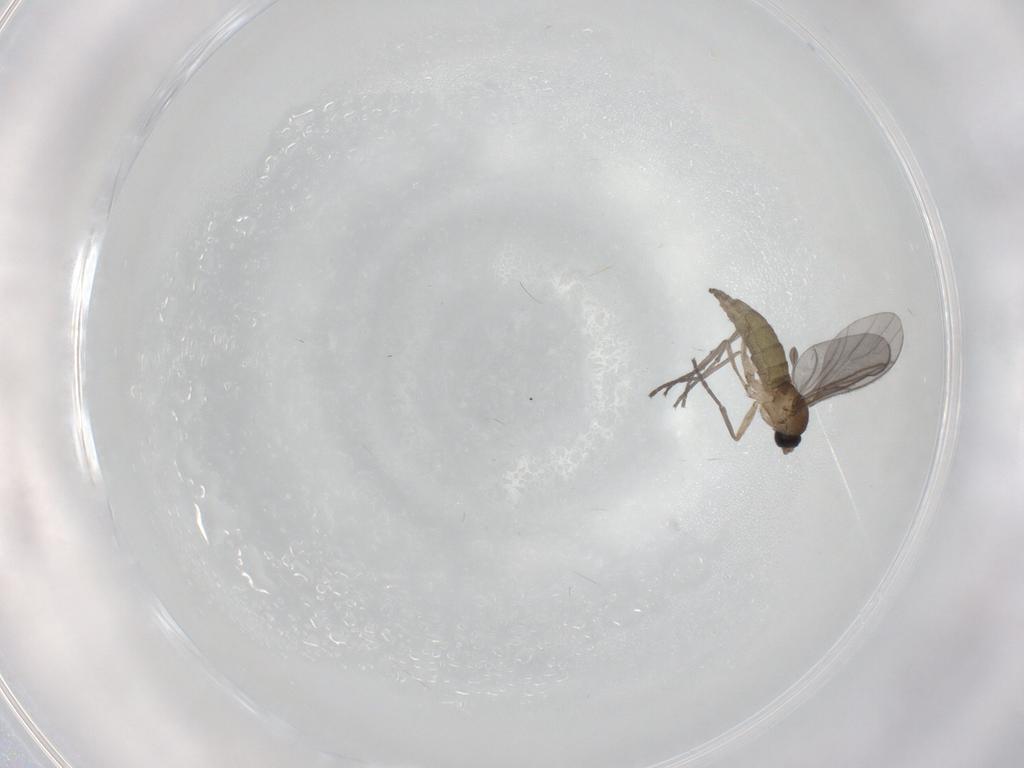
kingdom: Animalia
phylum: Arthropoda
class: Insecta
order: Diptera
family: Sciaridae
